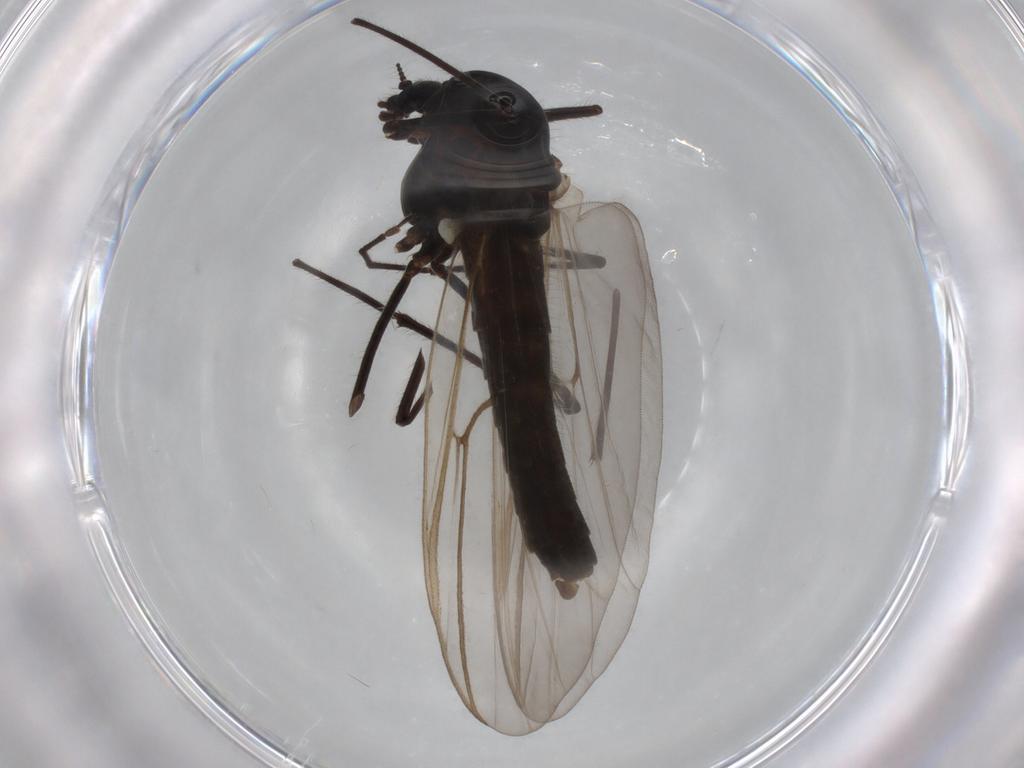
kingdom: Animalia
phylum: Arthropoda
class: Insecta
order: Diptera
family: Chironomidae
